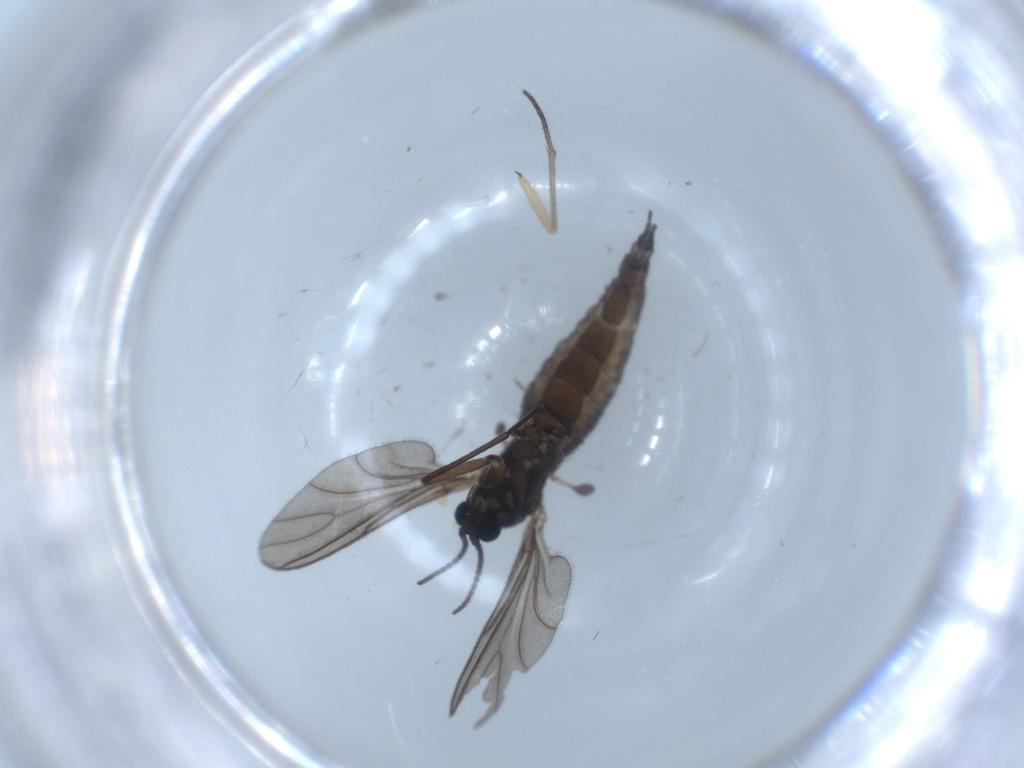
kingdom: Animalia
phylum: Arthropoda
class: Insecta
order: Diptera
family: Sciaridae
